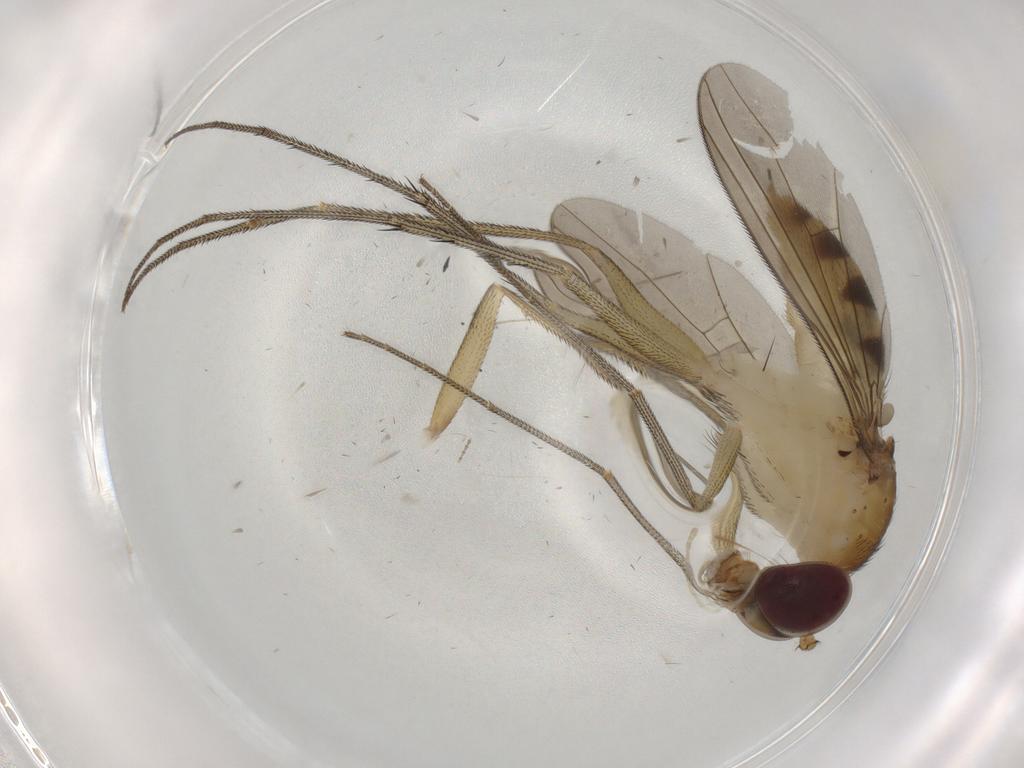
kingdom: Animalia
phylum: Arthropoda
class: Insecta
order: Diptera
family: Dolichopodidae
